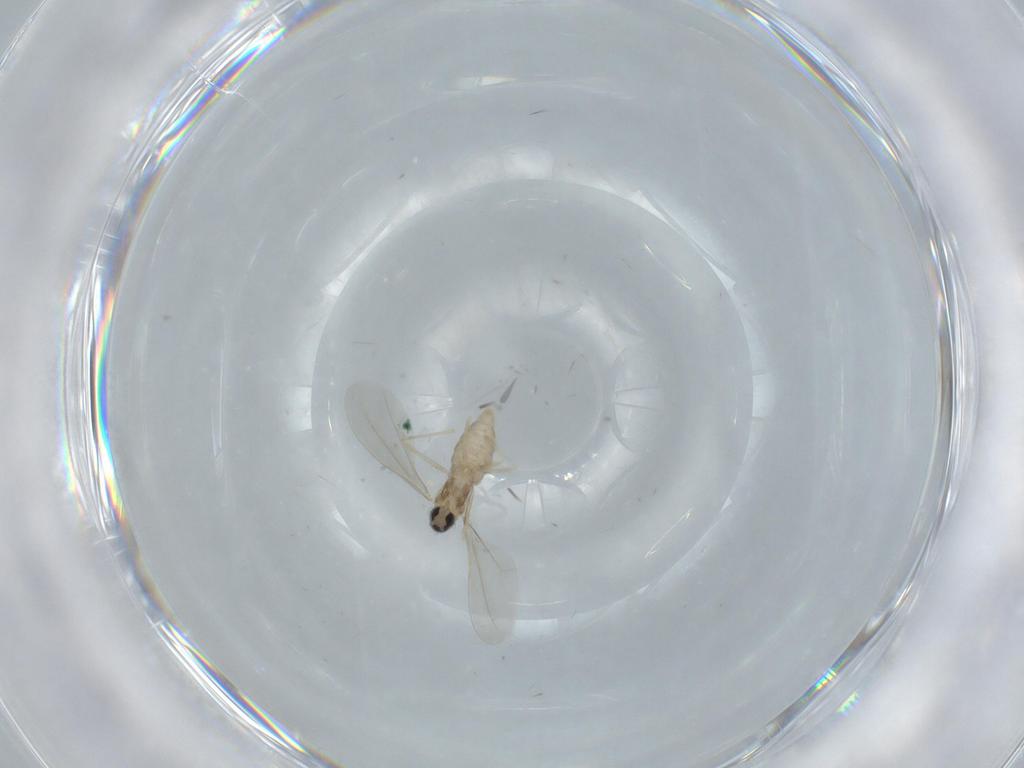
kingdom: Animalia
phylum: Arthropoda
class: Insecta
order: Diptera
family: Cecidomyiidae
